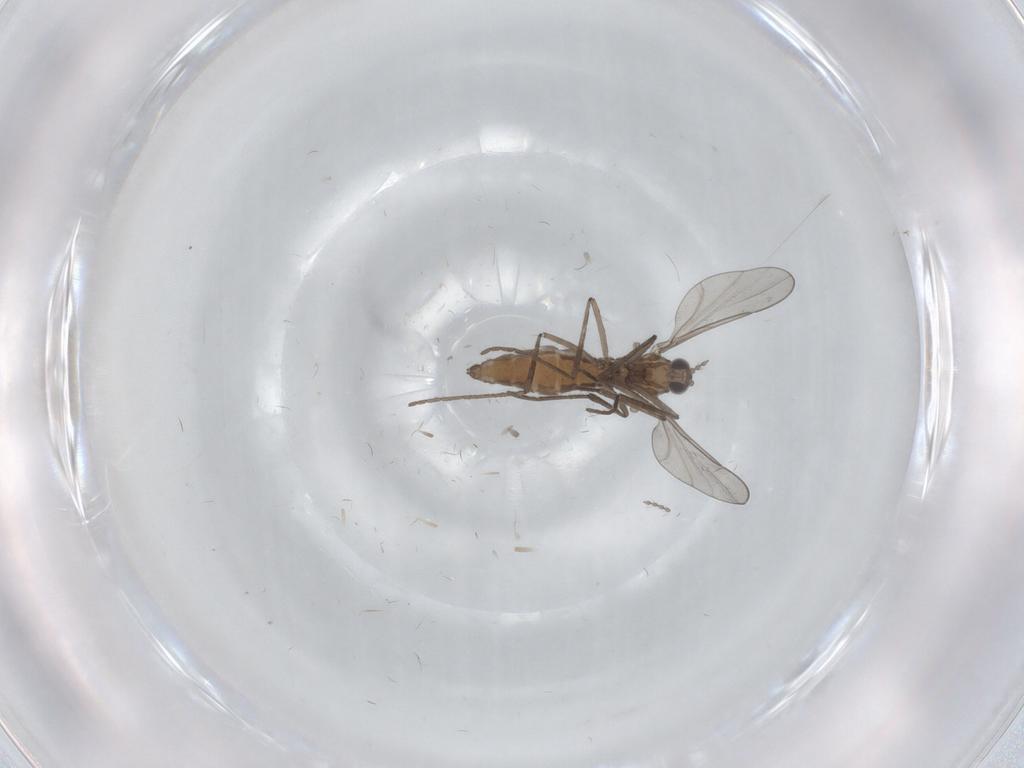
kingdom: Animalia
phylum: Arthropoda
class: Insecta
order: Diptera
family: Cecidomyiidae
